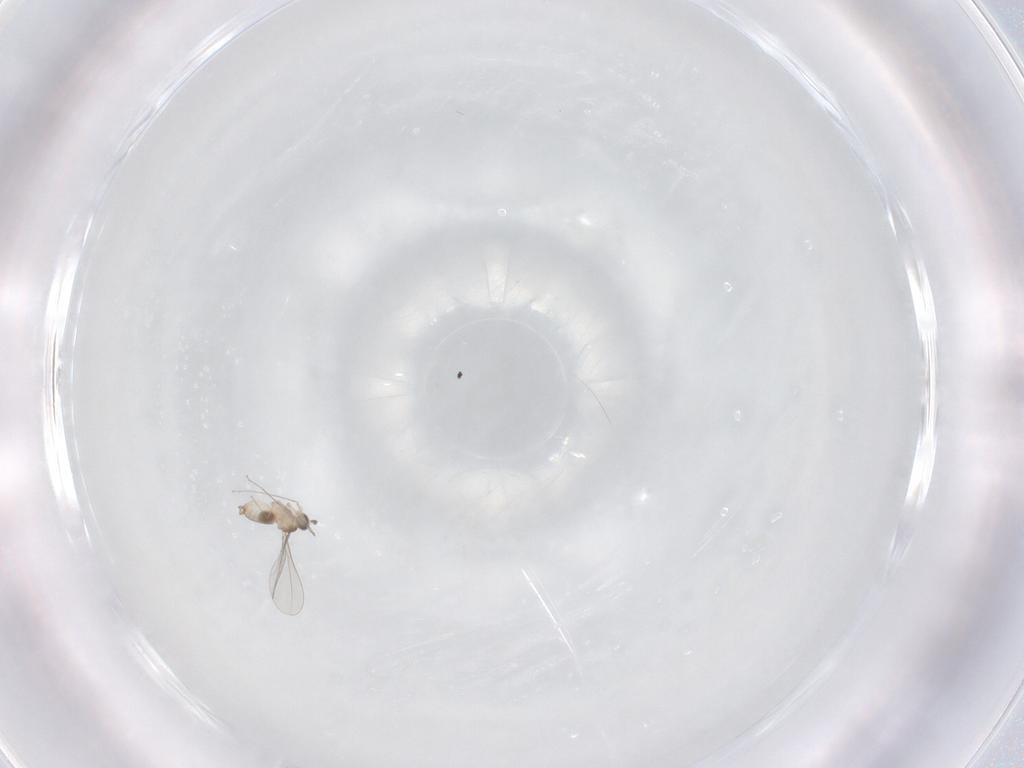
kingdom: Animalia
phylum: Arthropoda
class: Insecta
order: Diptera
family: Cecidomyiidae
